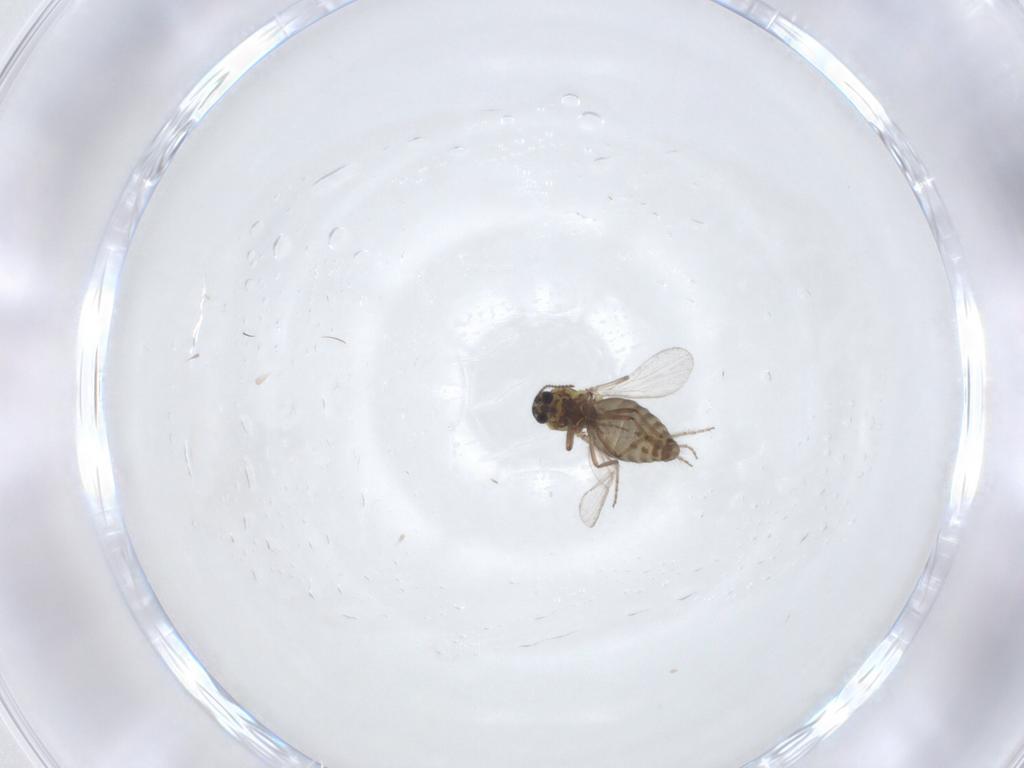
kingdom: Animalia
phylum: Arthropoda
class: Insecta
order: Diptera
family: Ceratopogonidae
